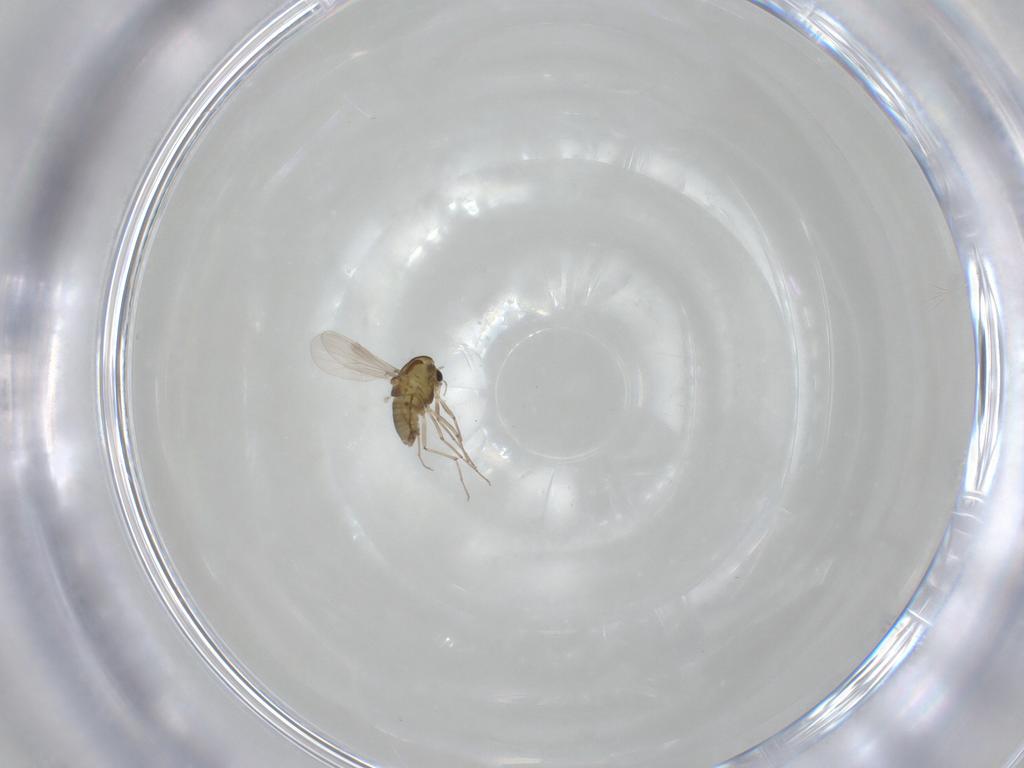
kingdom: Animalia
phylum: Arthropoda
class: Insecta
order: Diptera
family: Chironomidae
